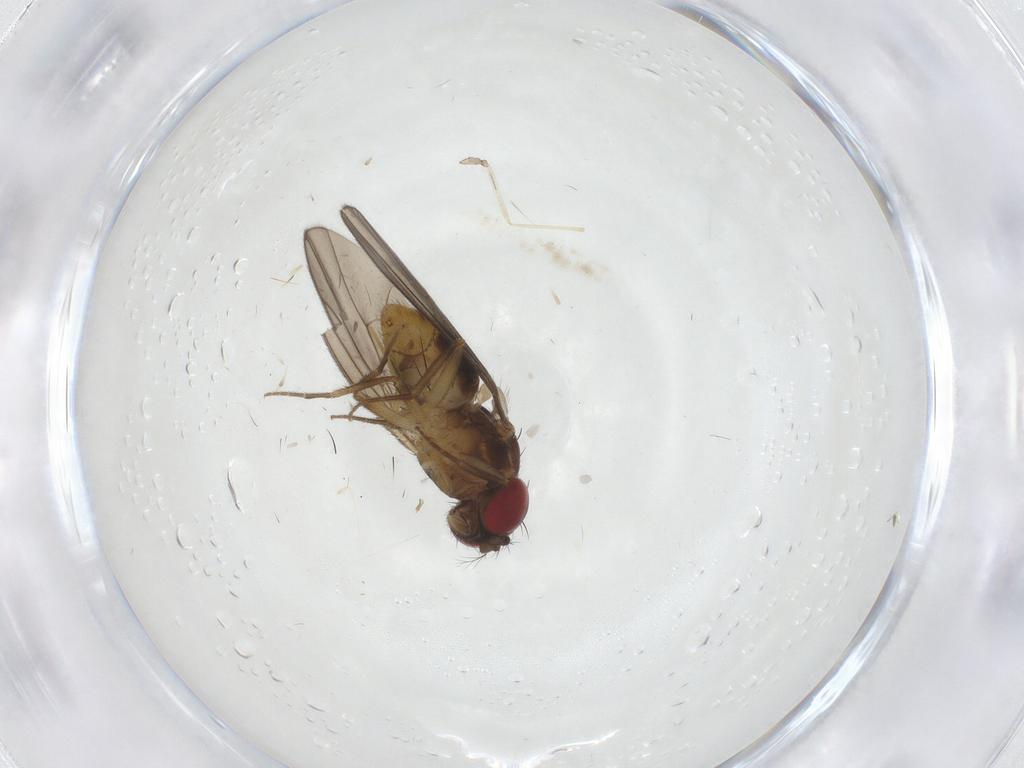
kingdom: Animalia
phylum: Arthropoda
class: Insecta
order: Diptera
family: Drosophilidae
